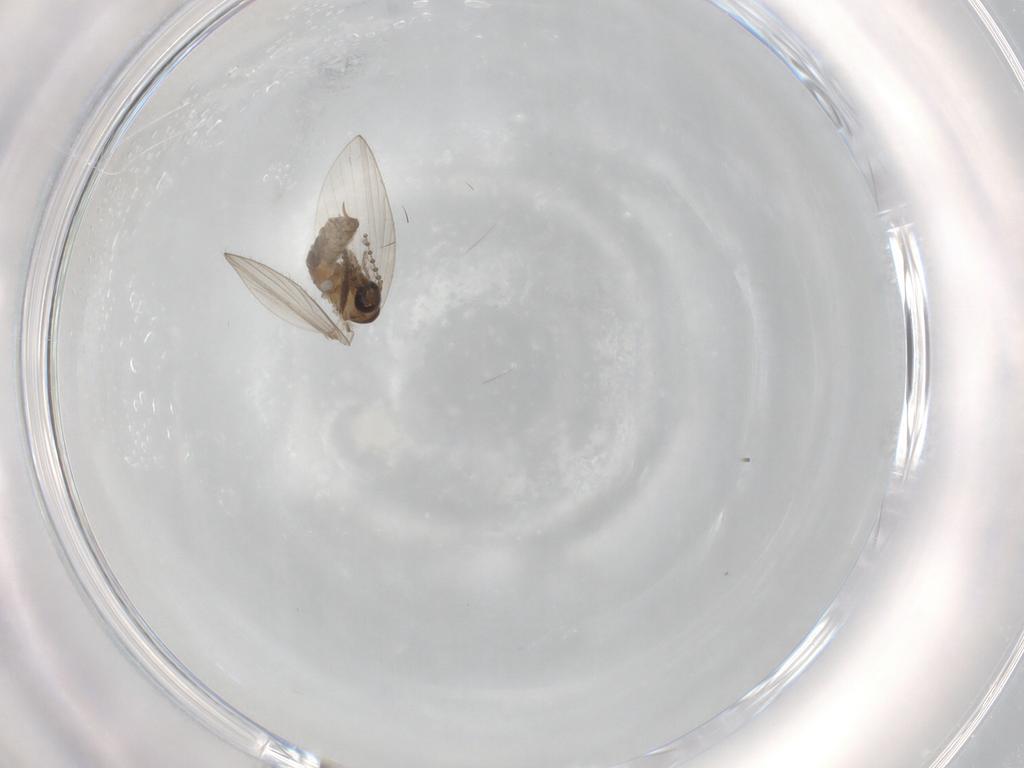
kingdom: Animalia
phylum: Arthropoda
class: Insecta
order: Diptera
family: Psychodidae
